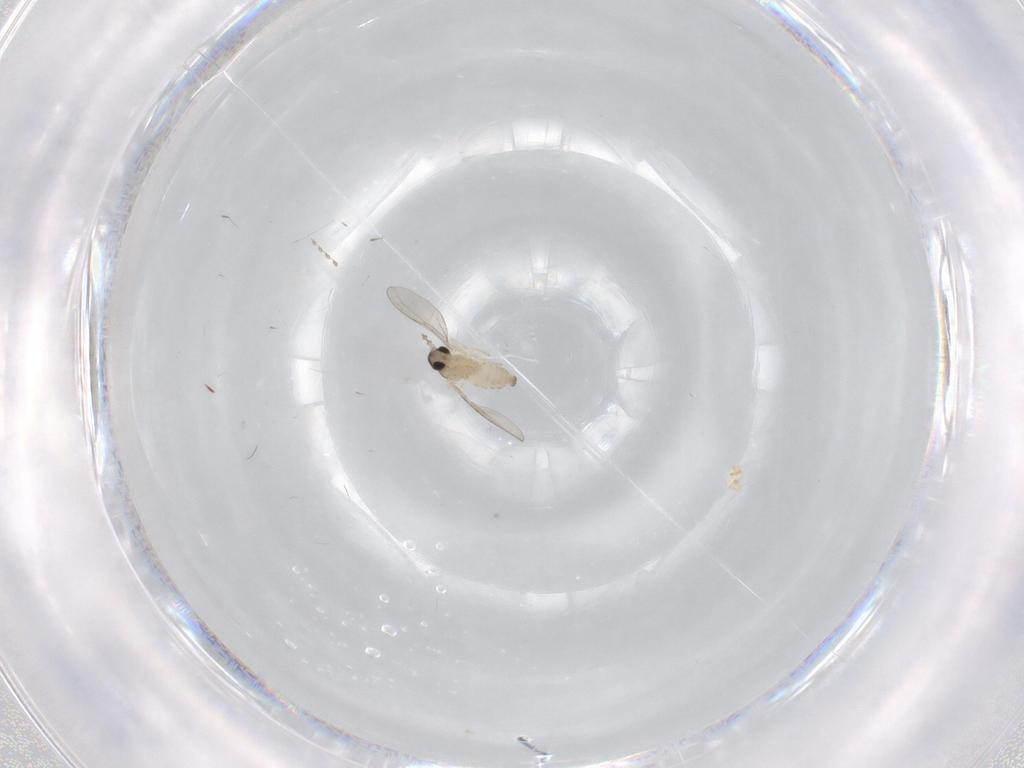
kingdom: Animalia
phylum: Arthropoda
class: Insecta
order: Diptera
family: Cecidomyiidae
